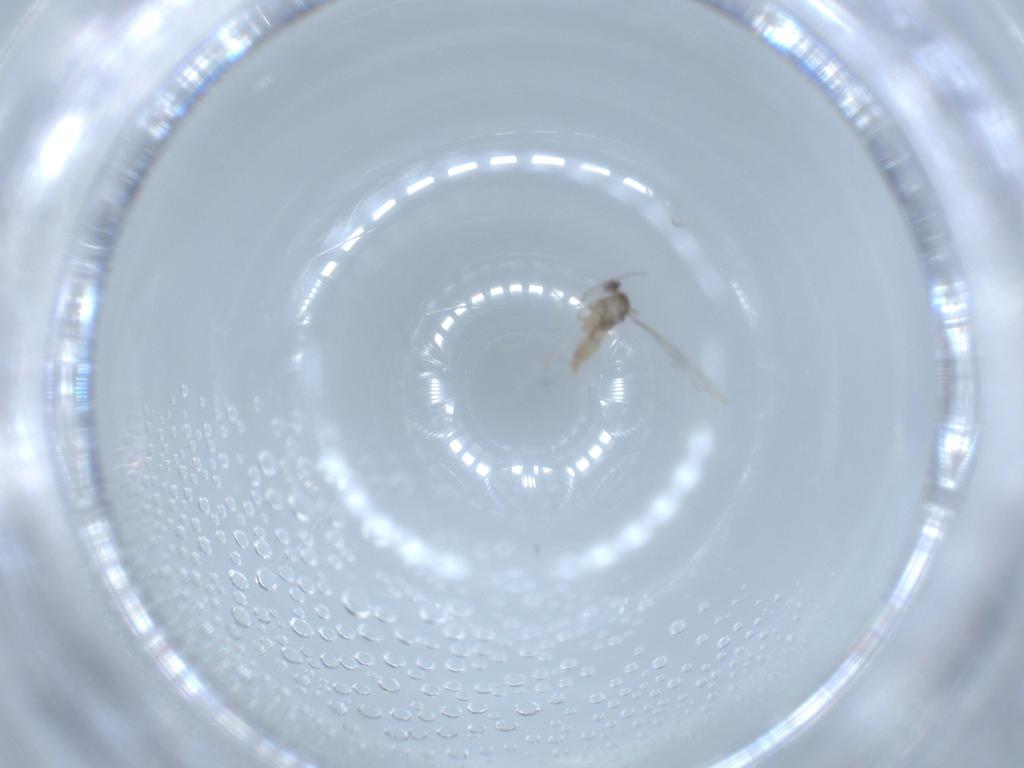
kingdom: Animalia
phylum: Arthropoda
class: Insecta
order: Diptera
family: Cecidomyiidae
